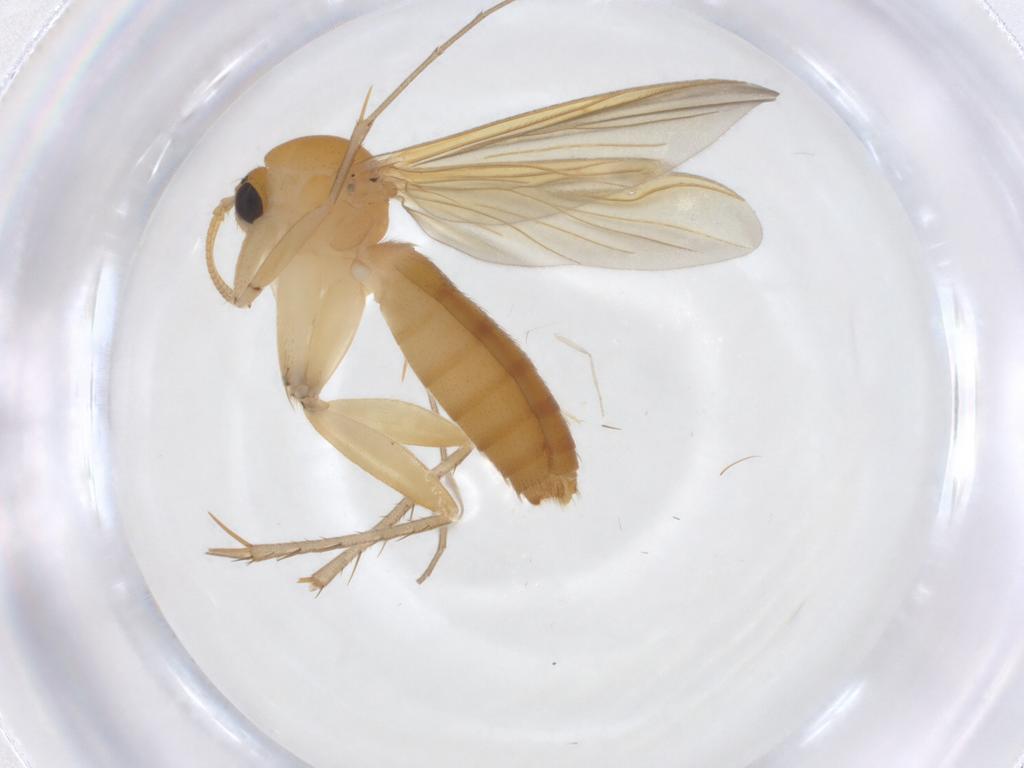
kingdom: Animalia
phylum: Arthropoda
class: Insecta
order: Diptera
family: Mycetophilidae
